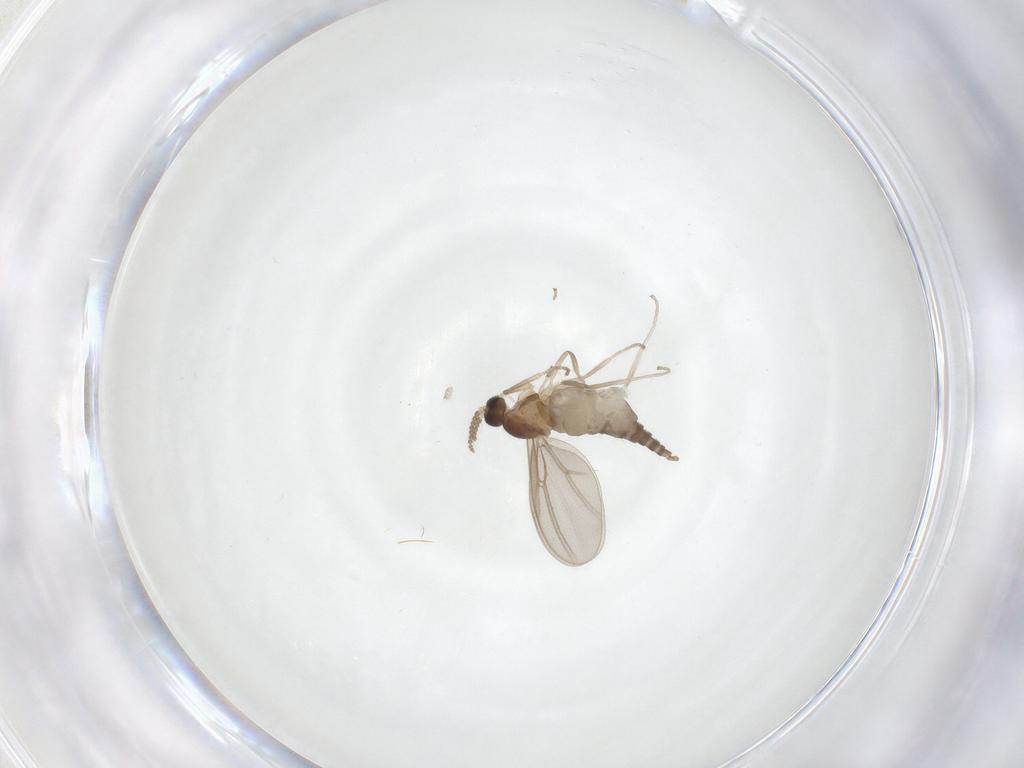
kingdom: Animalia
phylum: Arthropoda
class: Insecta
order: Diptera
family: Cecidomyiidae
